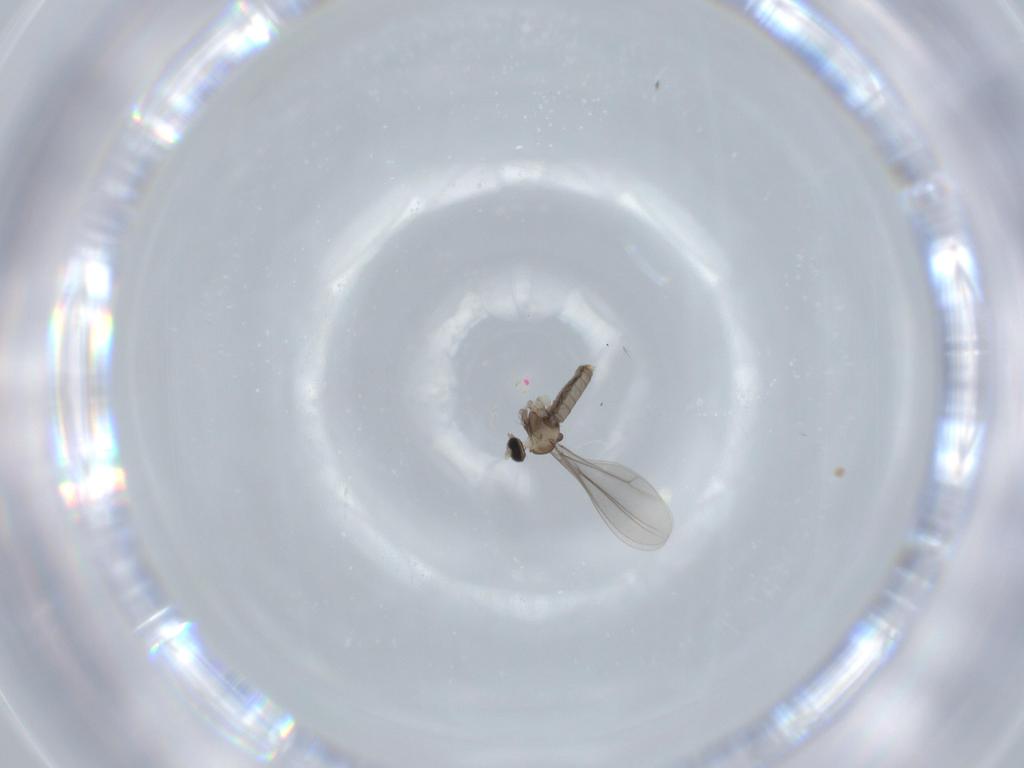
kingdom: Animalia
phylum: Arthropoda
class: Insecta
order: Diptera
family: Cecidomyiidae
